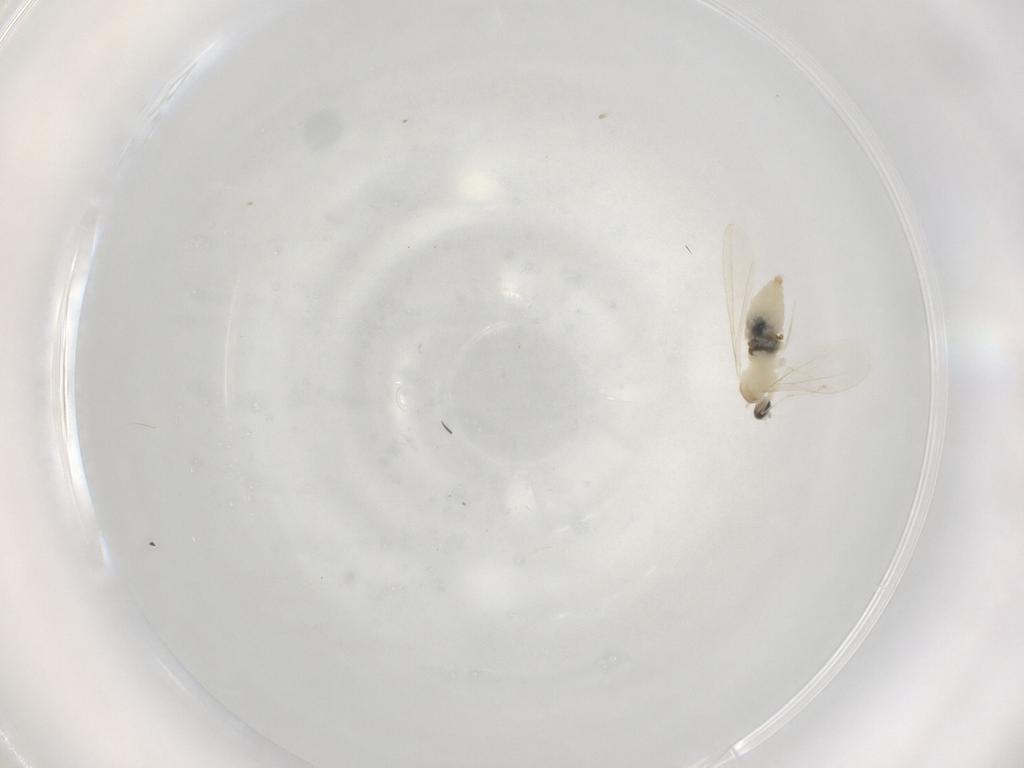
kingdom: Animalia
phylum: Arthropoda
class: Insecta
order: Diptera
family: Cecidomyiidae
